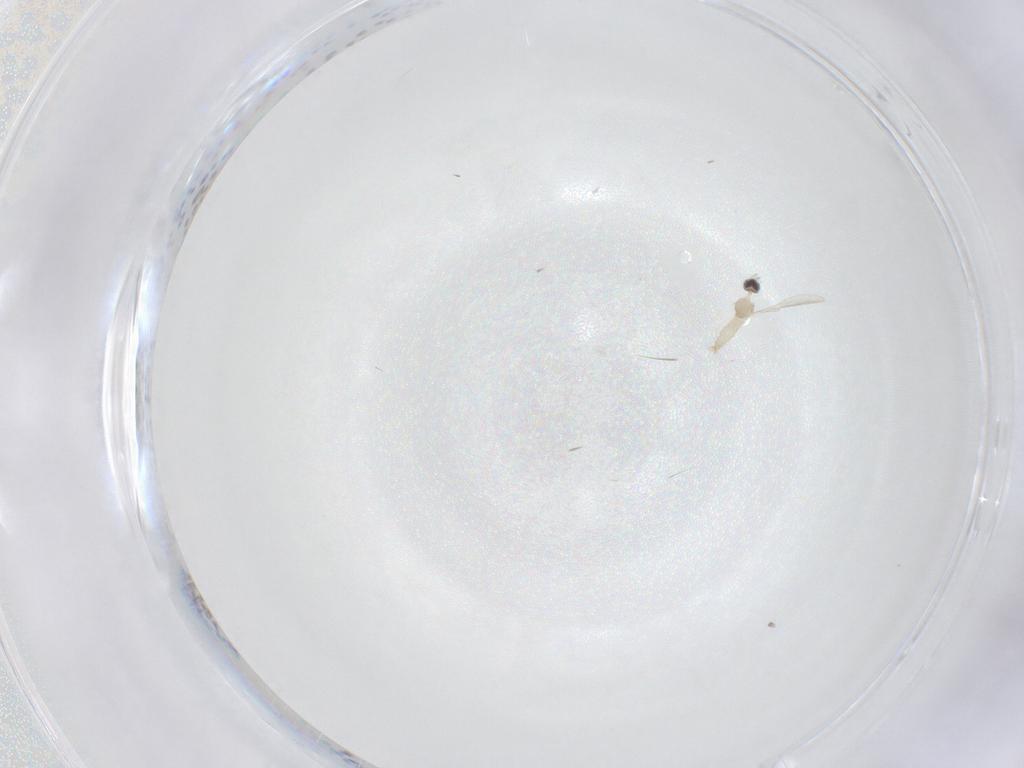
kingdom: Animalia
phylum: Arthropoda
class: Insecta
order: Diptera
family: Cecidomyiidae
